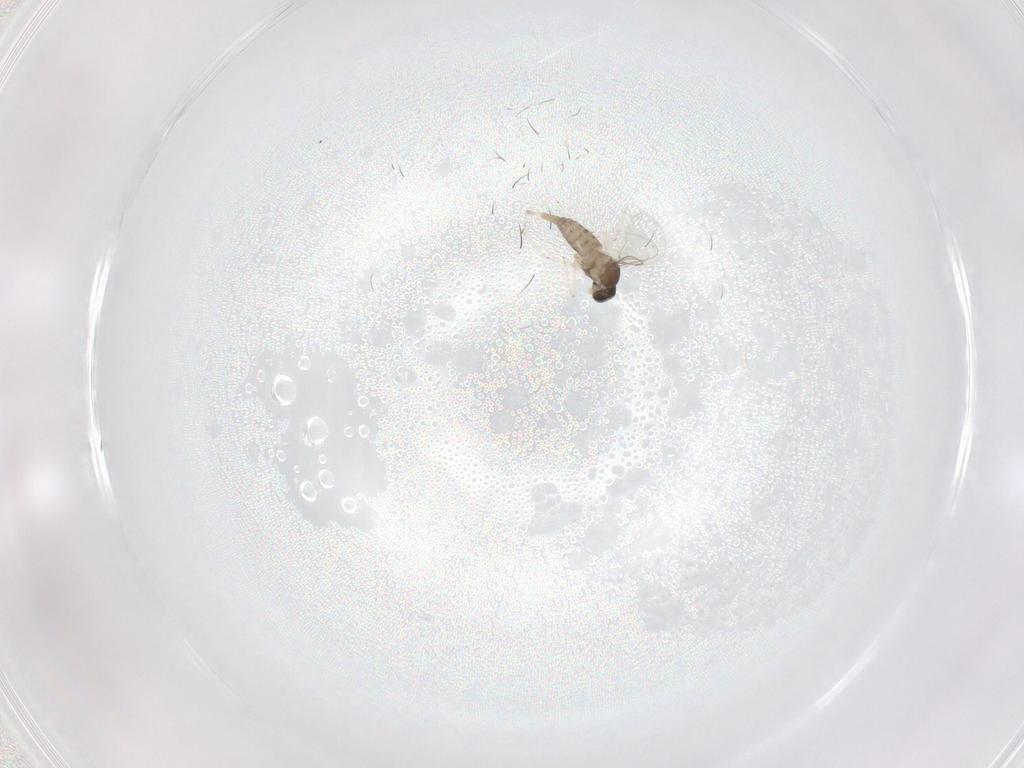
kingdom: Animalia
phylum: Arthropoda
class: Insecta
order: Diptera
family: Cecidomyiidae
